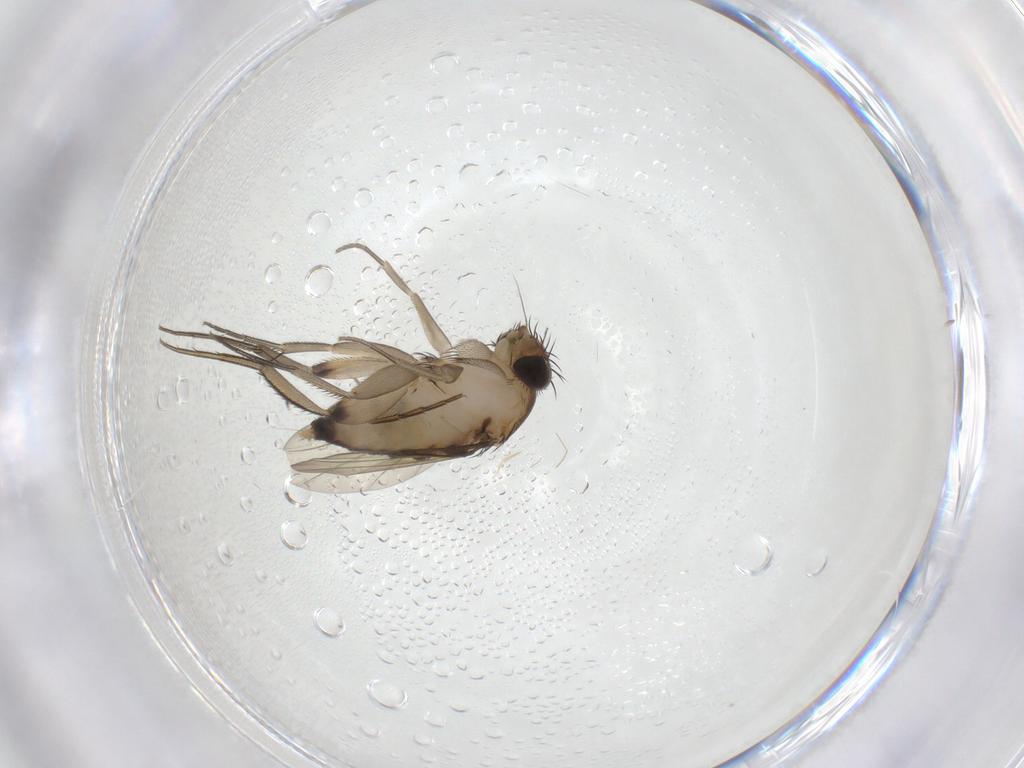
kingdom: Animalia
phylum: Arthropoda
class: Insecta
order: Diptera
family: Phoridae
